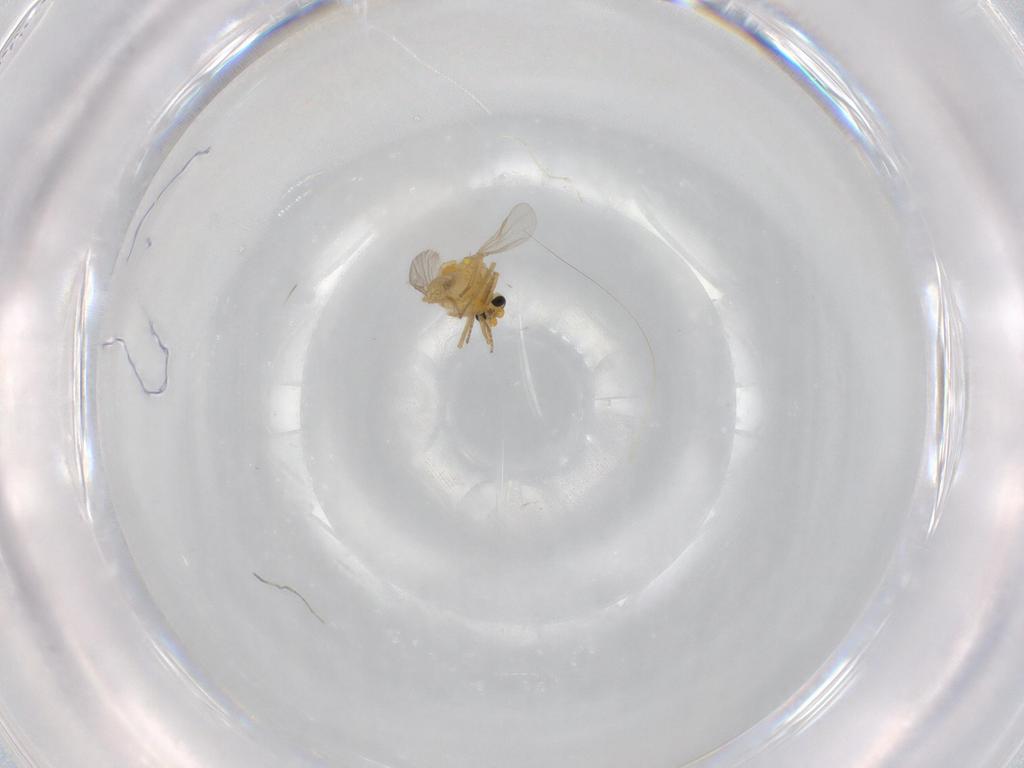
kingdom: Animalia
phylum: Arthropoda
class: Insecta
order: Diptera
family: Ceratopogonidae
